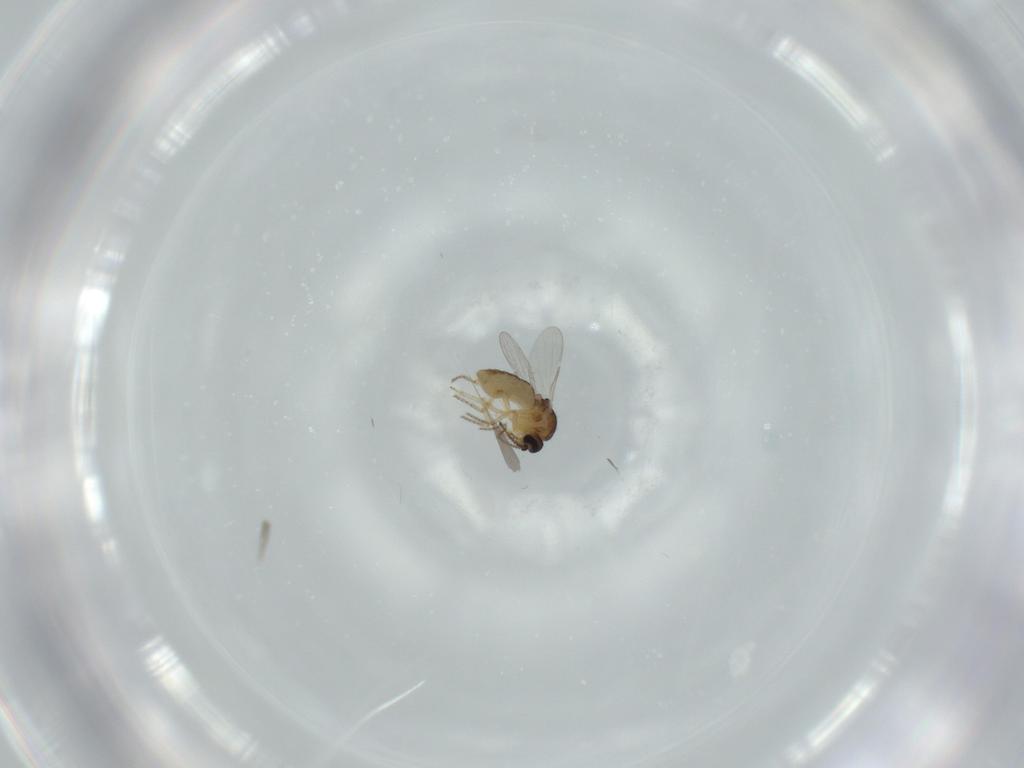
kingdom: Animalia
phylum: Arthropoda
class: Insecta
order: Diptera
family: Ceratopogonidae
